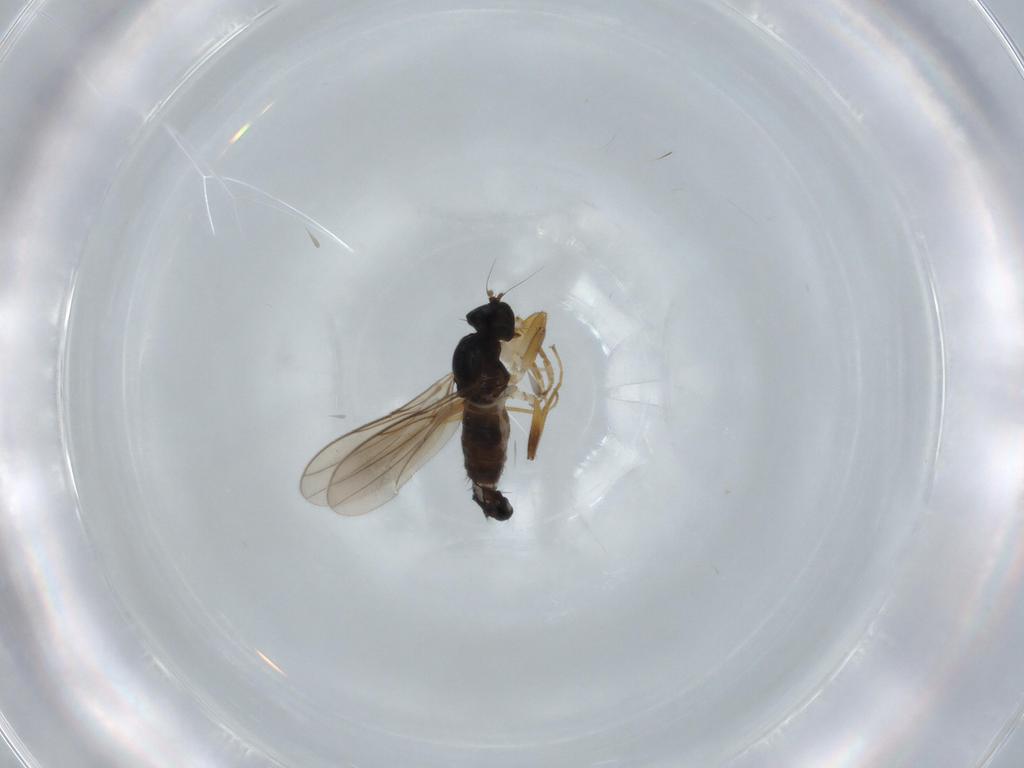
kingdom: Animalia
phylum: Arthropoda
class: Insecta
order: Diptera
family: Hybotidae
